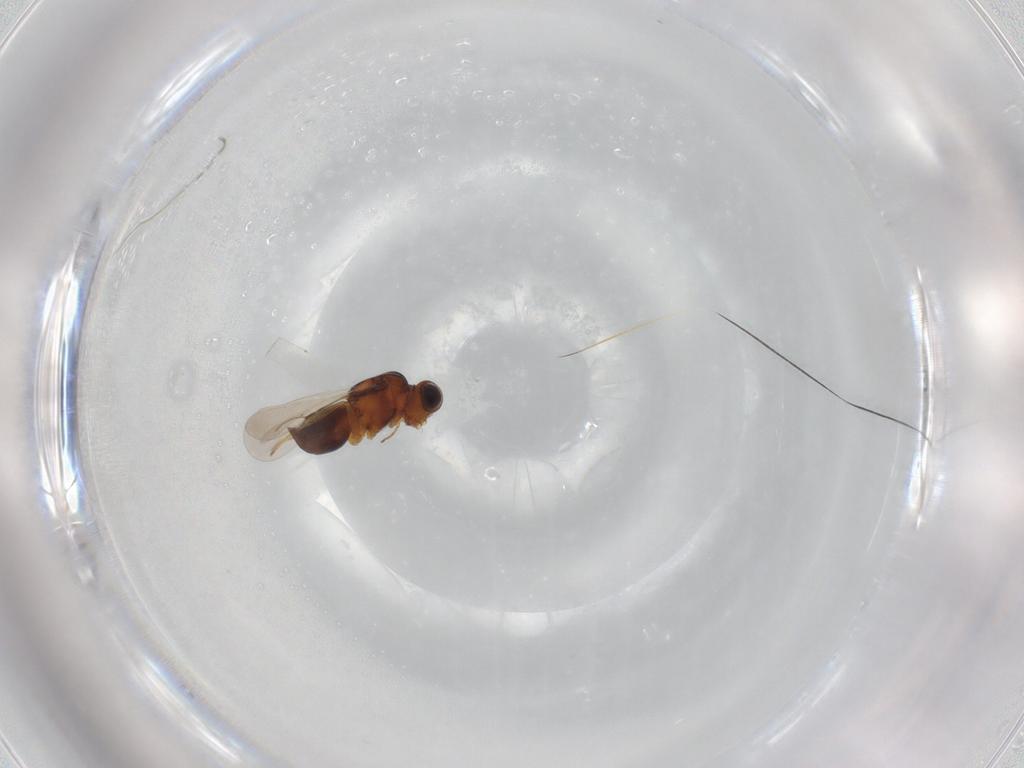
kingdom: Animalia
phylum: Arthropoda
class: Insecta
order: Hymenoptera
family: Eulophidae
